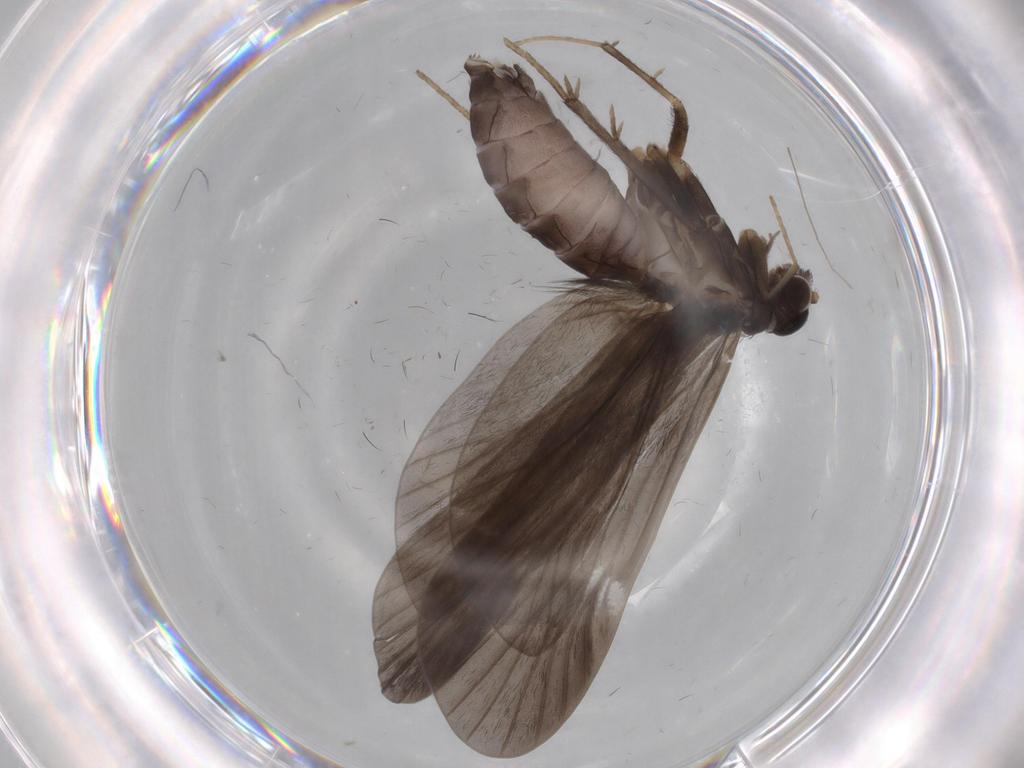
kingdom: Animalia
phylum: Arthropoda
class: Insecta
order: Trichoptera
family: Hydropsychidae
